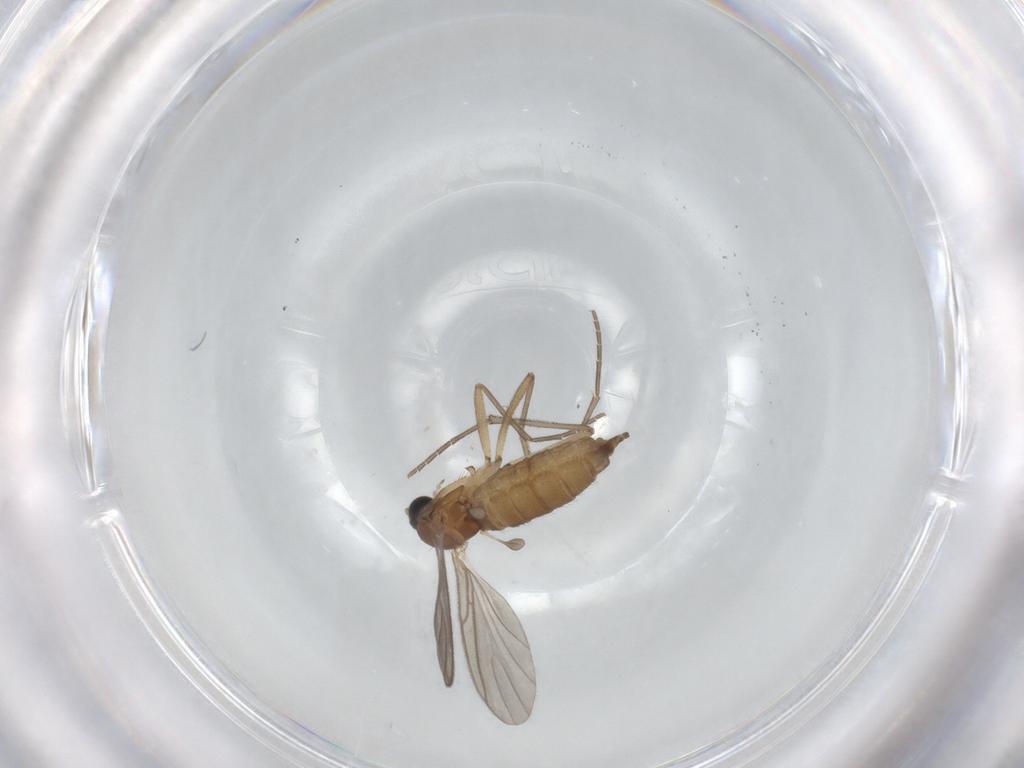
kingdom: Animalia
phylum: Arthropoda
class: Insecta
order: Diptera
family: Sciaridae
